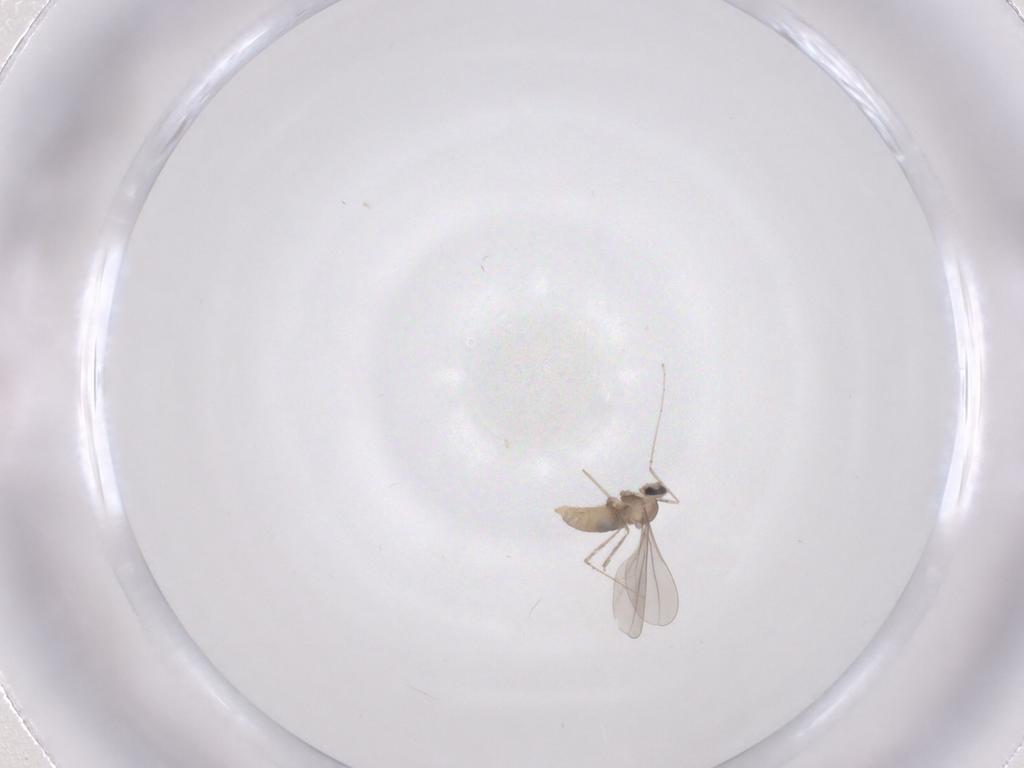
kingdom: Animalia
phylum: Arthropoda
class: Insecta
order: Diptera
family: Cecidomyiidae
